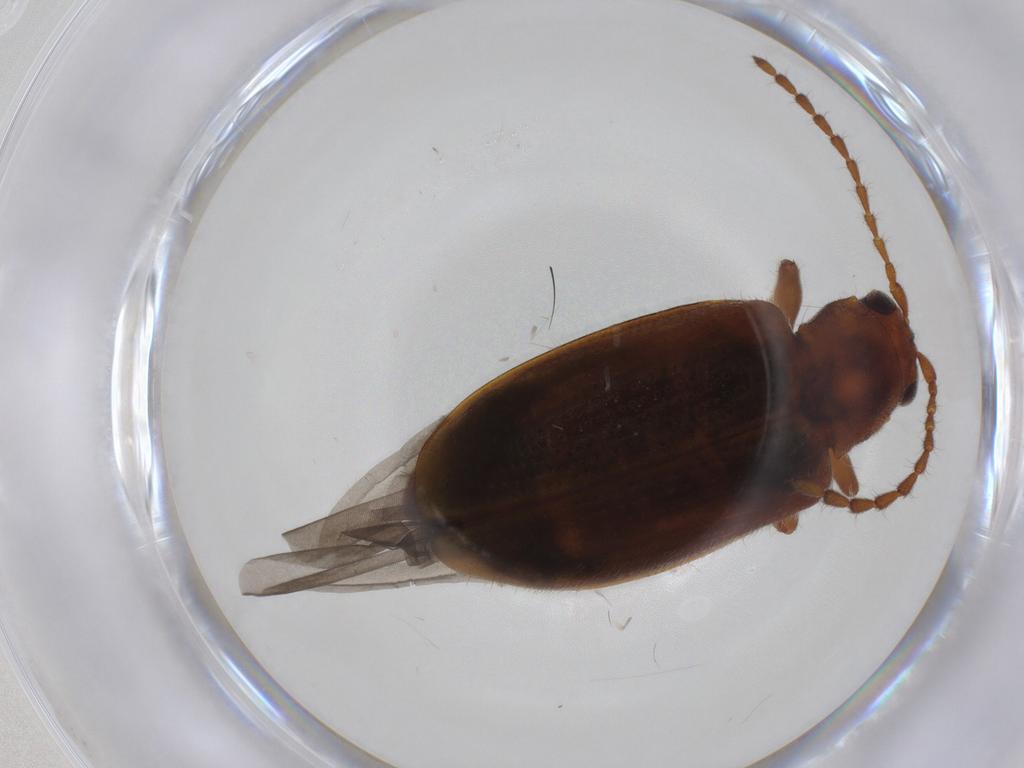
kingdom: Animalia
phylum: Arthropoda
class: Insecta
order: Coleoptera
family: Chrysomelidae
